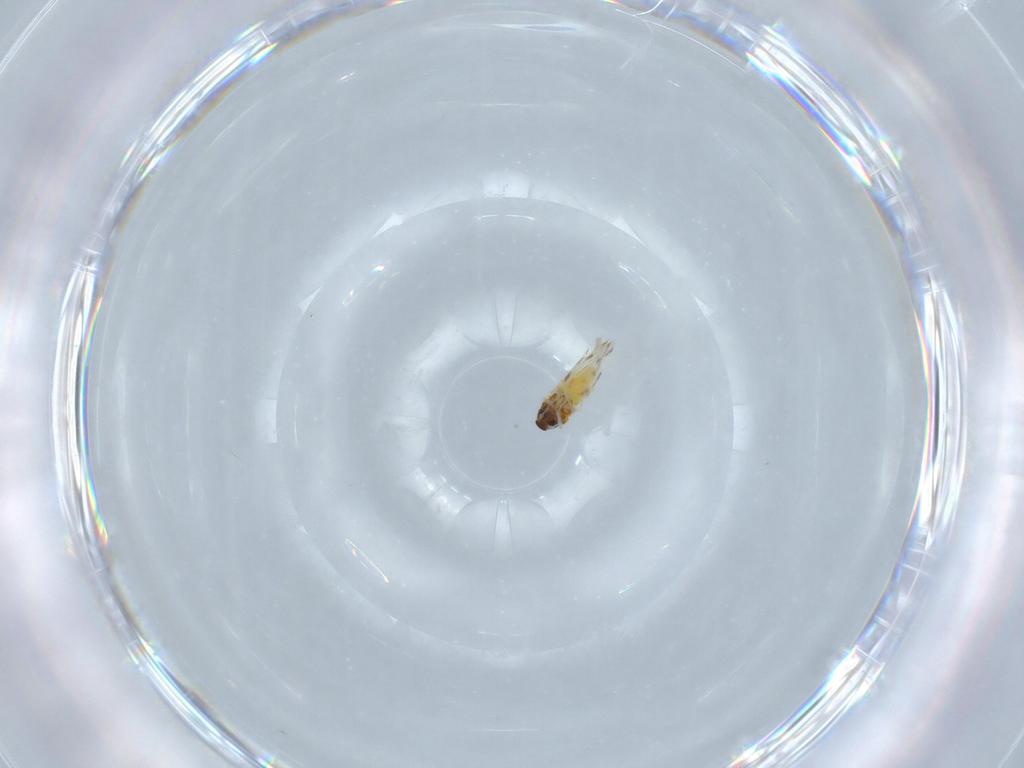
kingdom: Animalia
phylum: Arthropoda
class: Insecta
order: Hemiptera
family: Aleyrodidae
